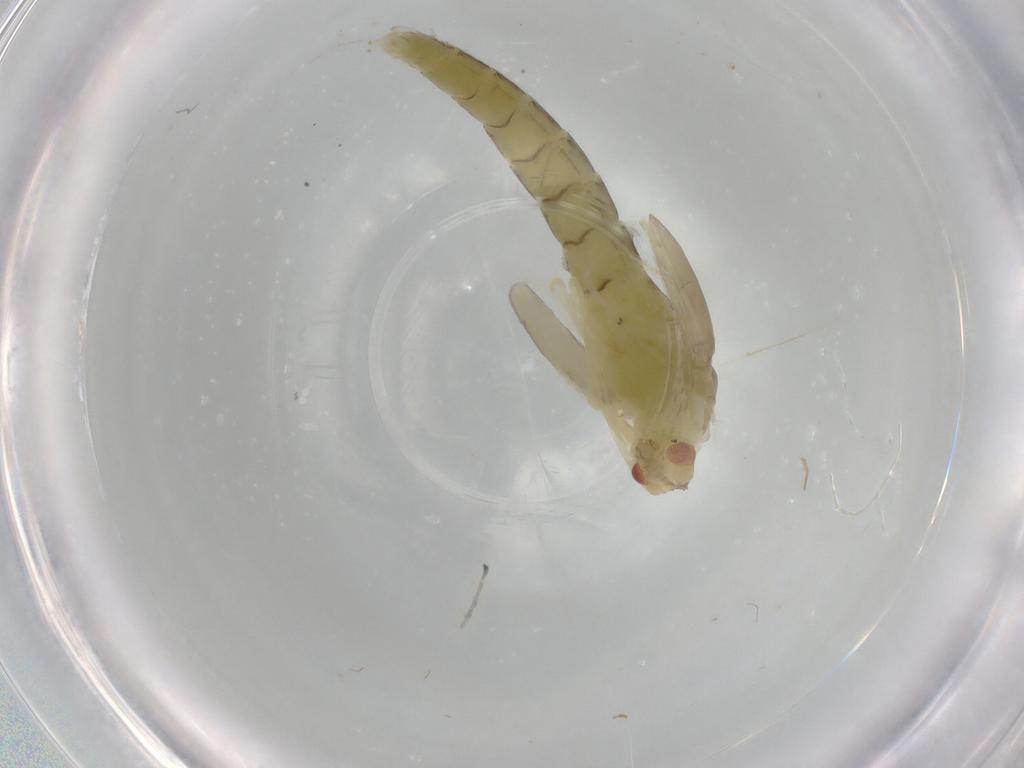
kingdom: Animalia
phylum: Arthropoda
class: Insecta
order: Diptera
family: Cecidomyiidae
